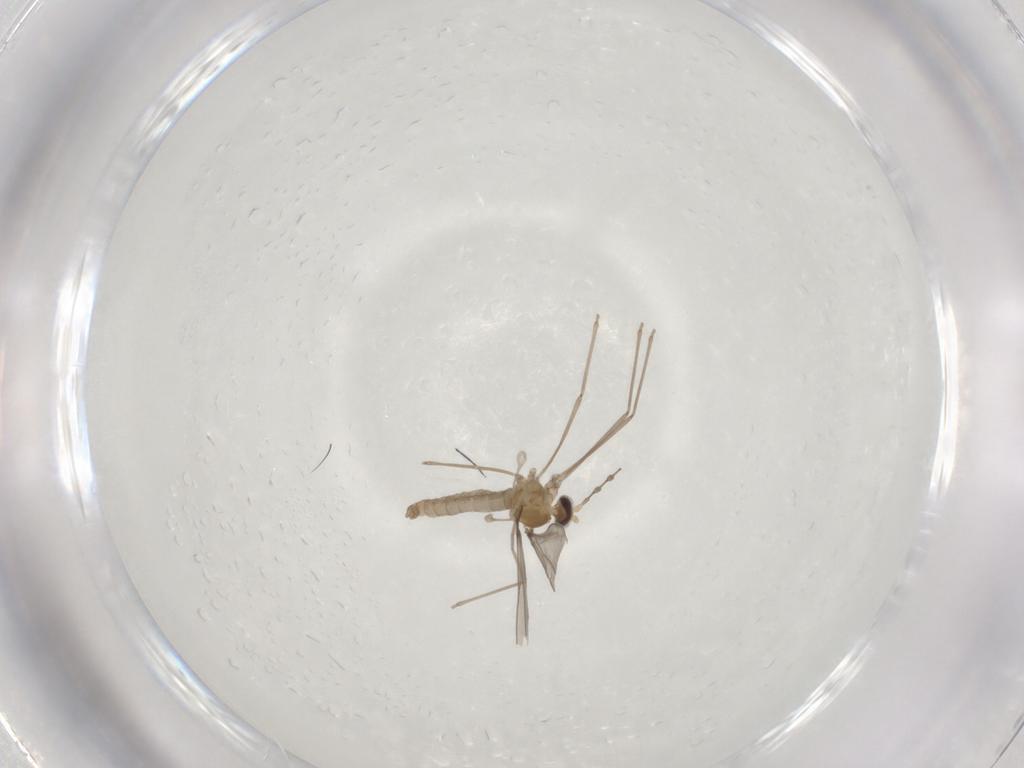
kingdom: Animalia
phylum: Arthropoda
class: Insecta
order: Diptera
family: Cecidomyiidae
